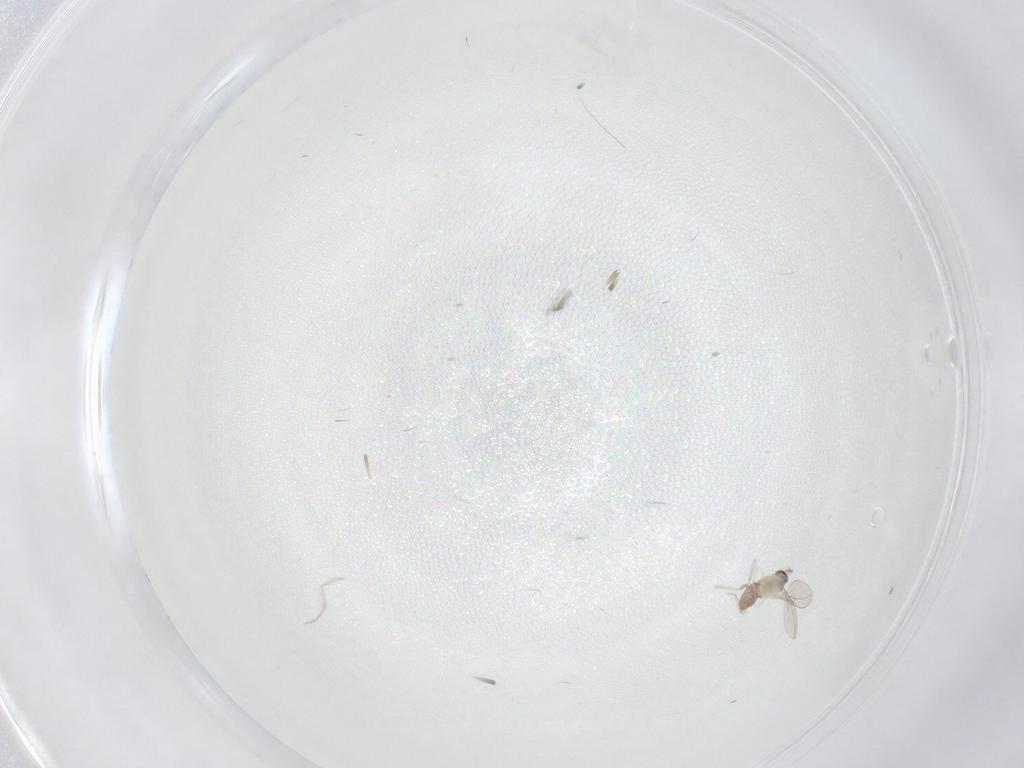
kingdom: Animalia
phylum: Arthropoda
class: Insecta
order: Diptera
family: Cecidomyiidae
